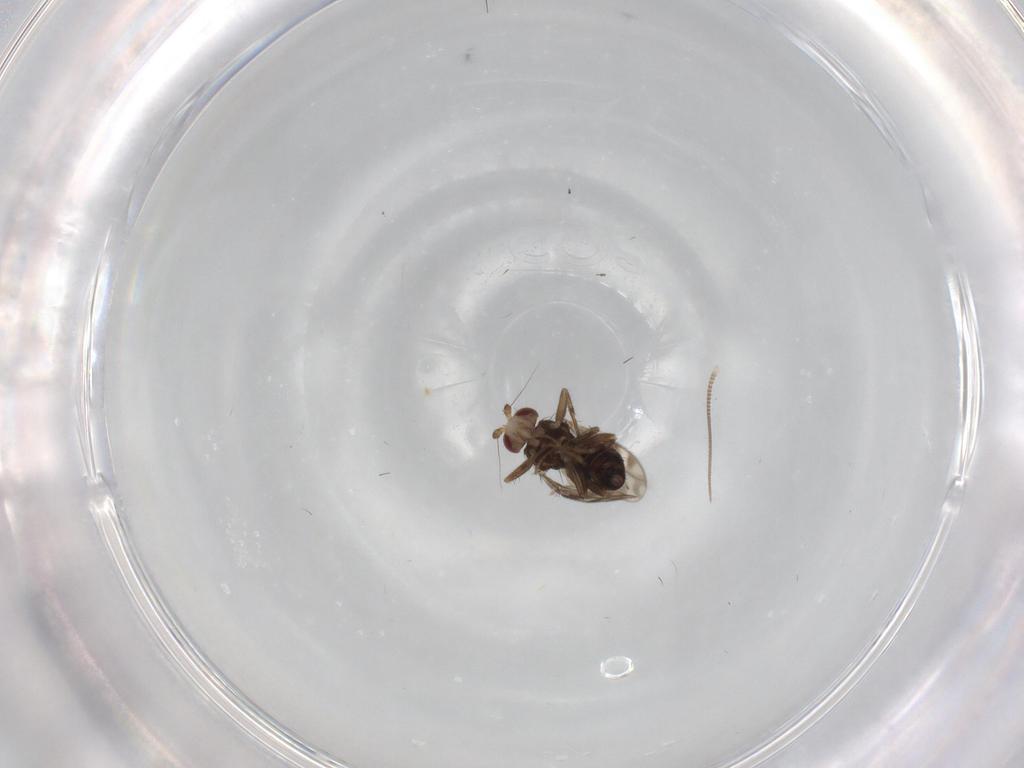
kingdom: Animalia
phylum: Arthropoda
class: Insecta
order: Diptera
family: Sphaeroceridae
